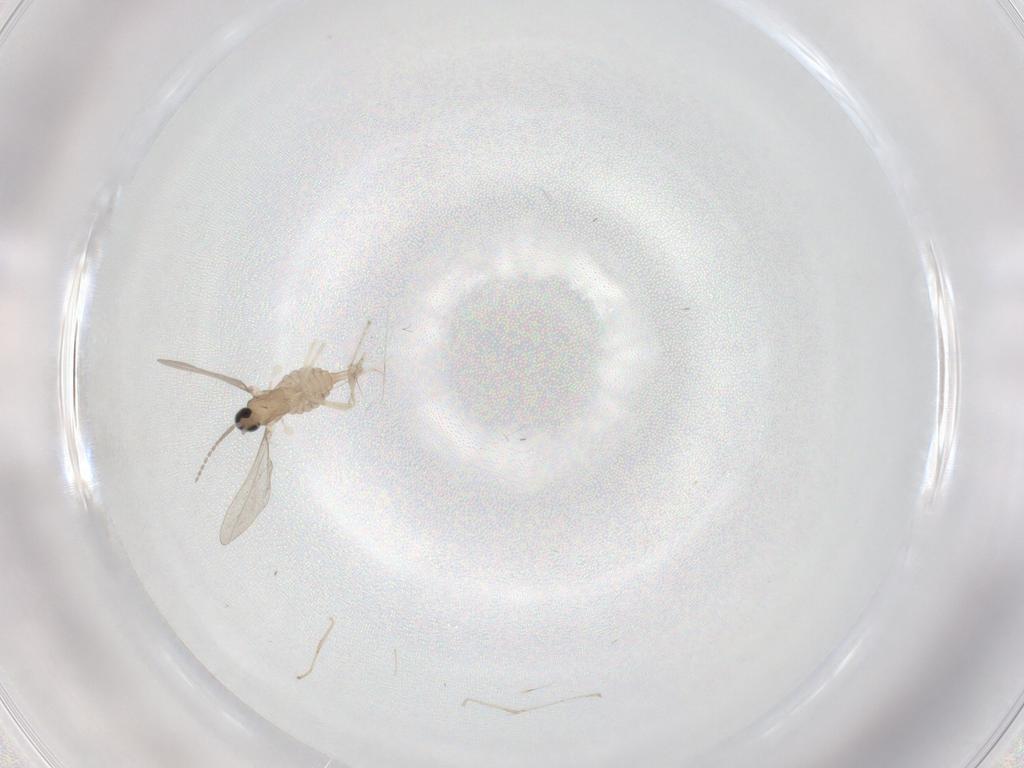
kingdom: Animalia
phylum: Arthropoda
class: Insecta
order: Diptera
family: Cecidomyiidae
